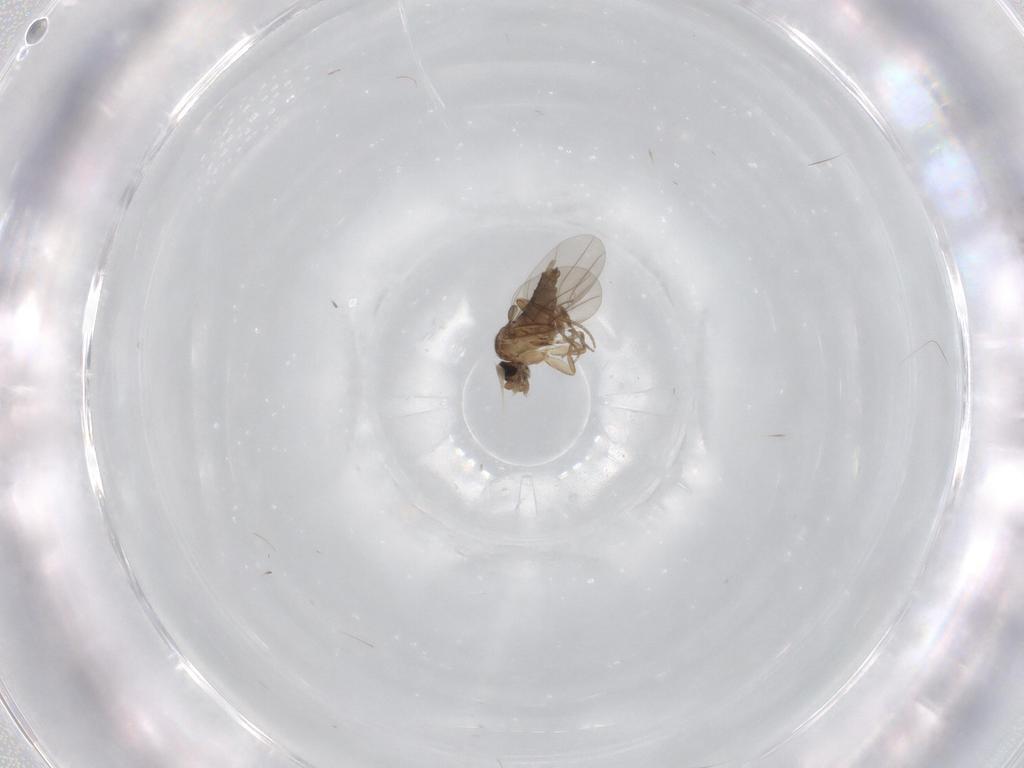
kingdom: Animalia
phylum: Arthropoda
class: Insecta
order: Diptera
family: Phoridae
